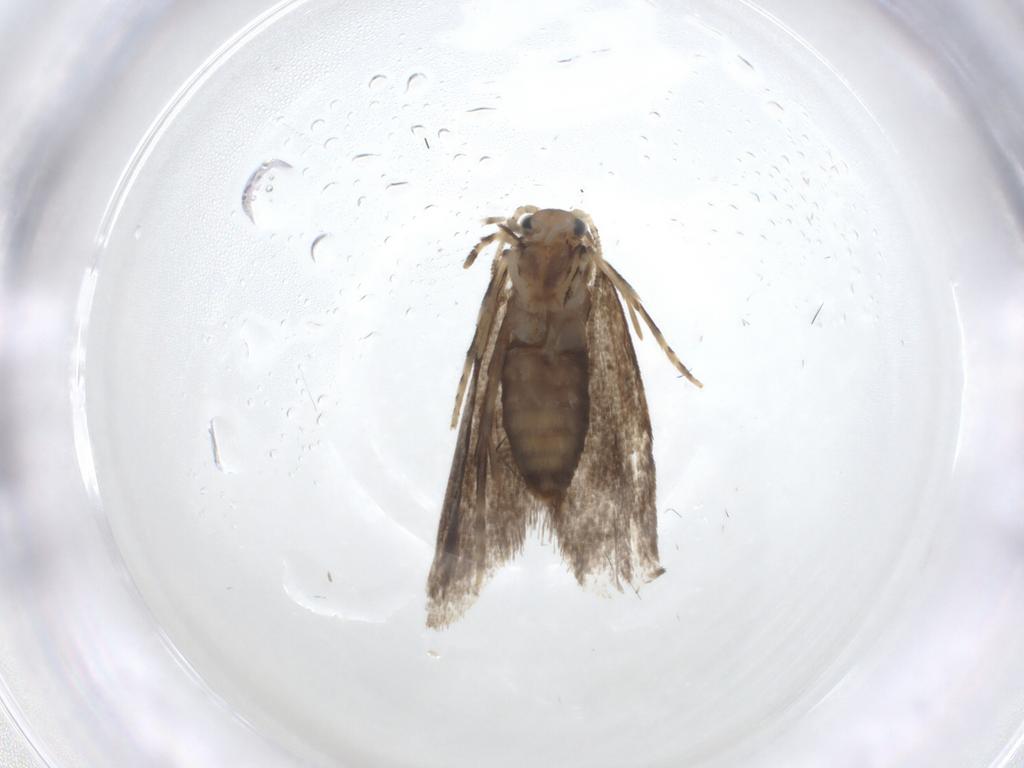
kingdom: Animalia
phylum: Arthropoda
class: Insecta
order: Lepidoptera
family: Tineidae
